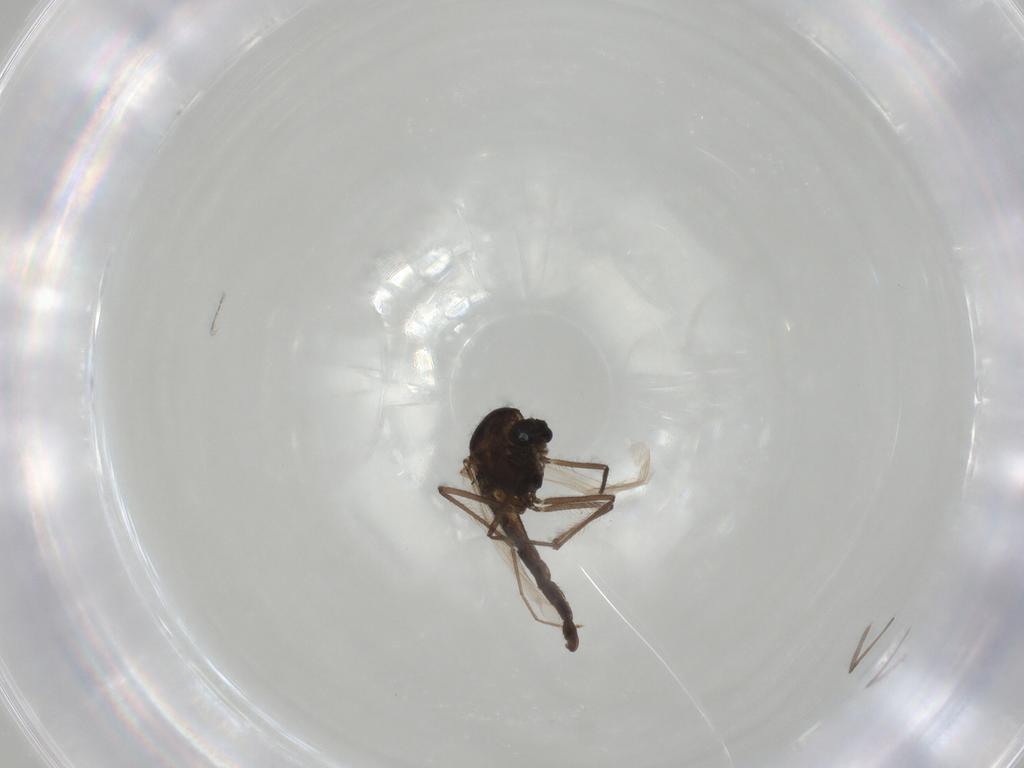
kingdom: Animalia
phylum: Arthropoda
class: Insecta
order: Diptera
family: Chironomidae
